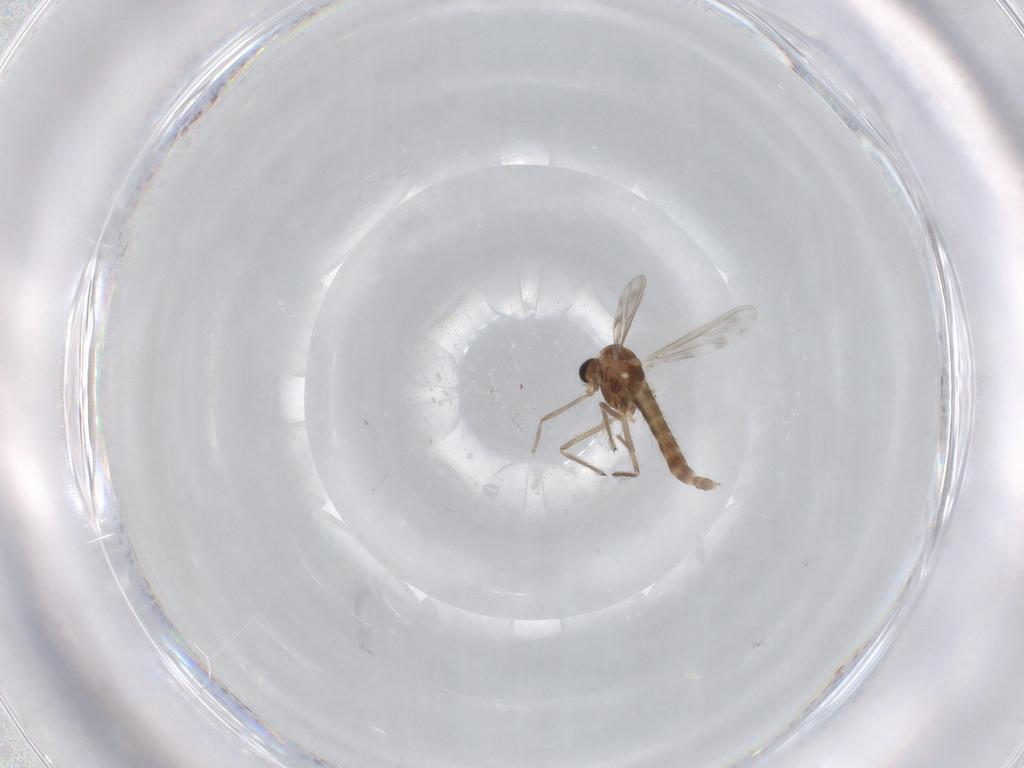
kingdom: Animalia
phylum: Arthropoda
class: Insecta
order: Diptera
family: Chironomidae
